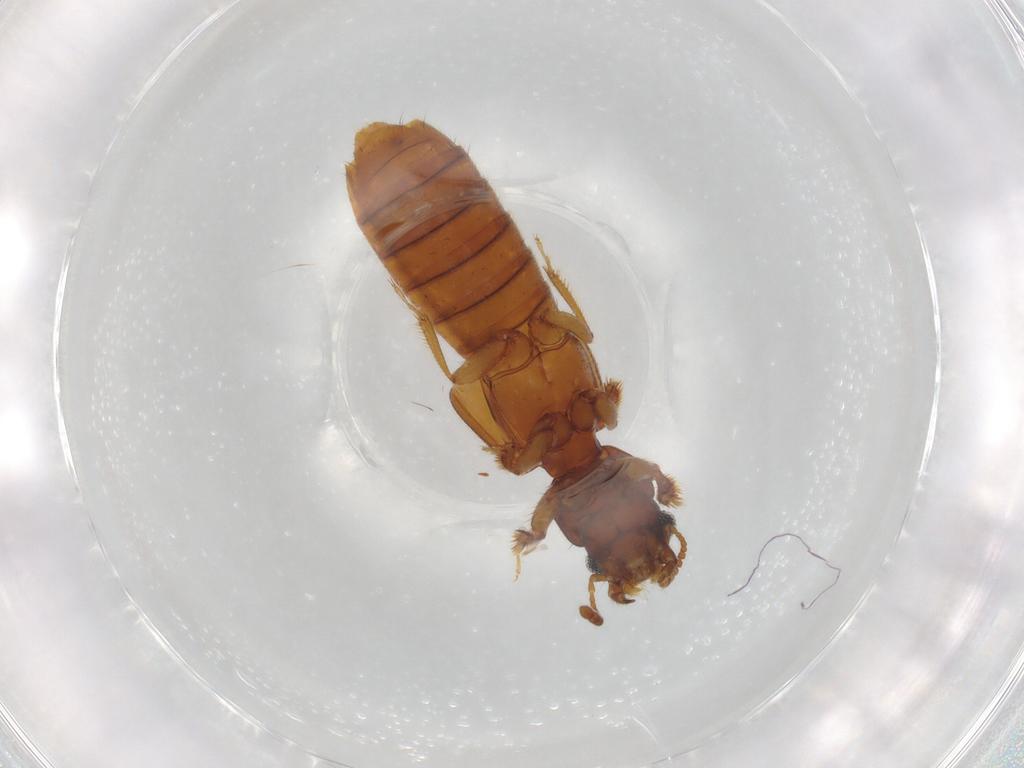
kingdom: Animalia
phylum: Arthropoda
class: Insecta
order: Coleoptera
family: Staphylinidae
